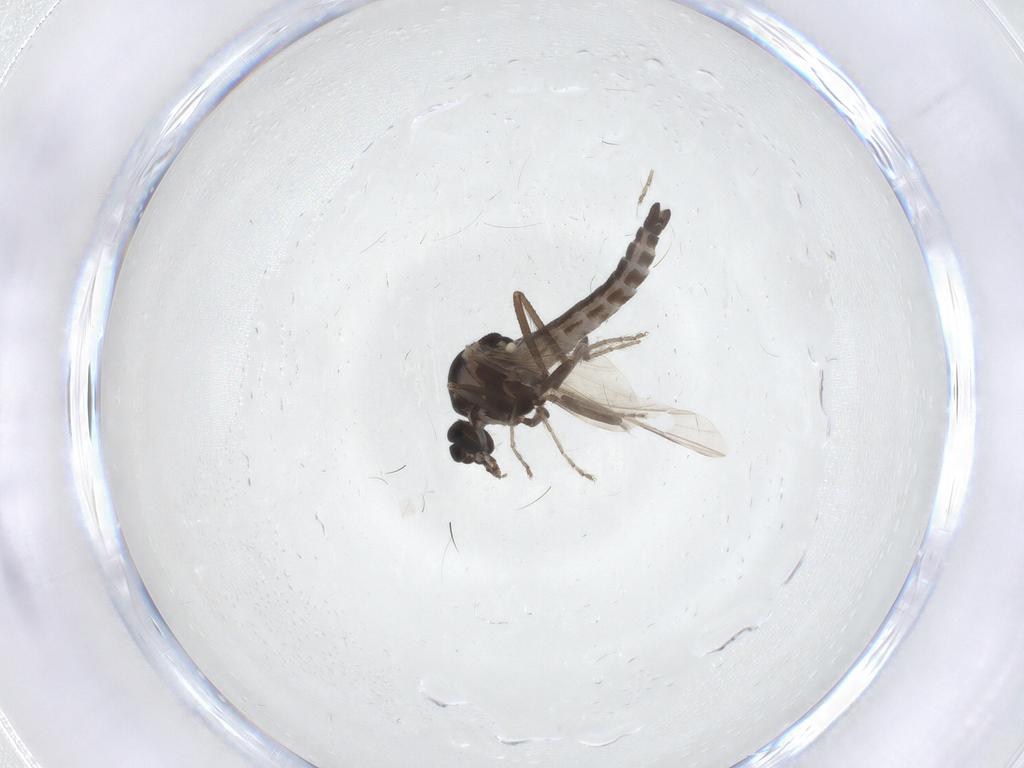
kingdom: Animalia
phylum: Arthropoda
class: Insecta
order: Diptera
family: Ceratopogonidae
